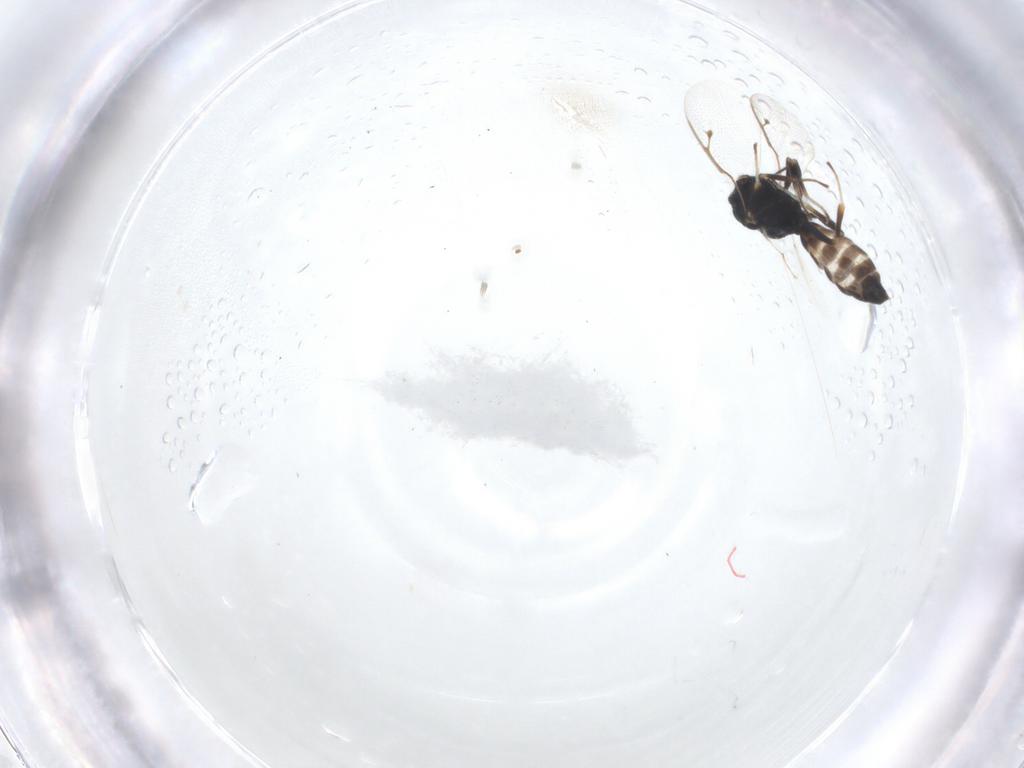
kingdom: Animalia
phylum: Arthropoda
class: Insecta
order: Hymenoptera
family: Pteromalidae
